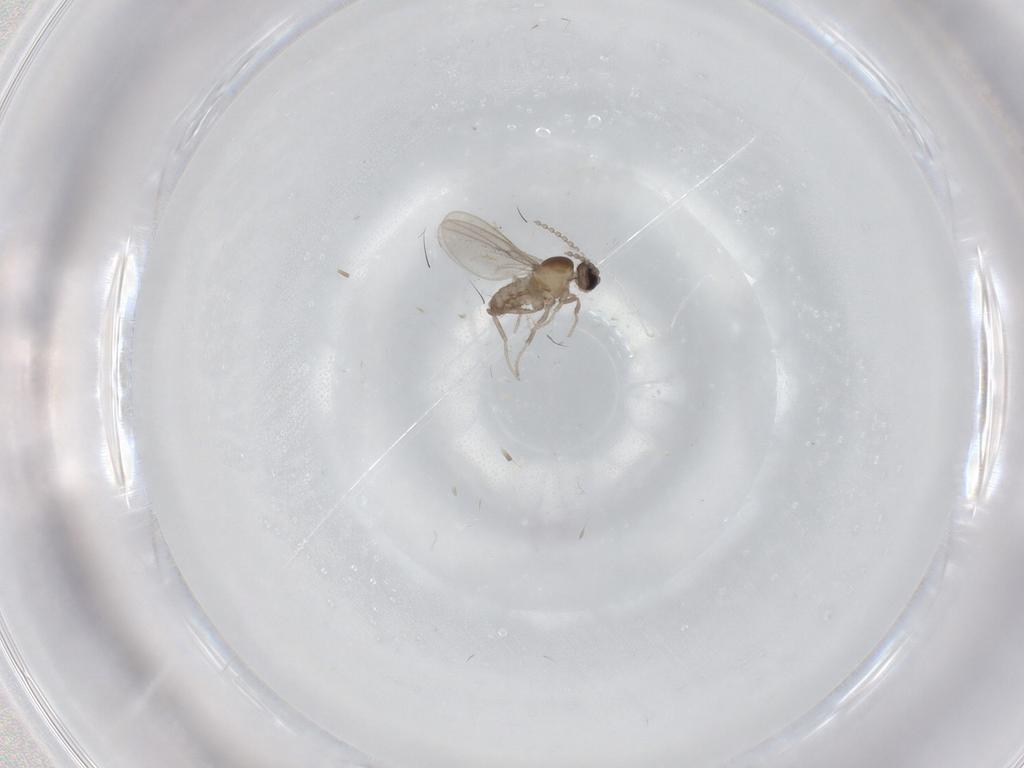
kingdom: Animalia
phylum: Arthropoda
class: Insecta
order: Diptera
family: Cecidomyiidae
